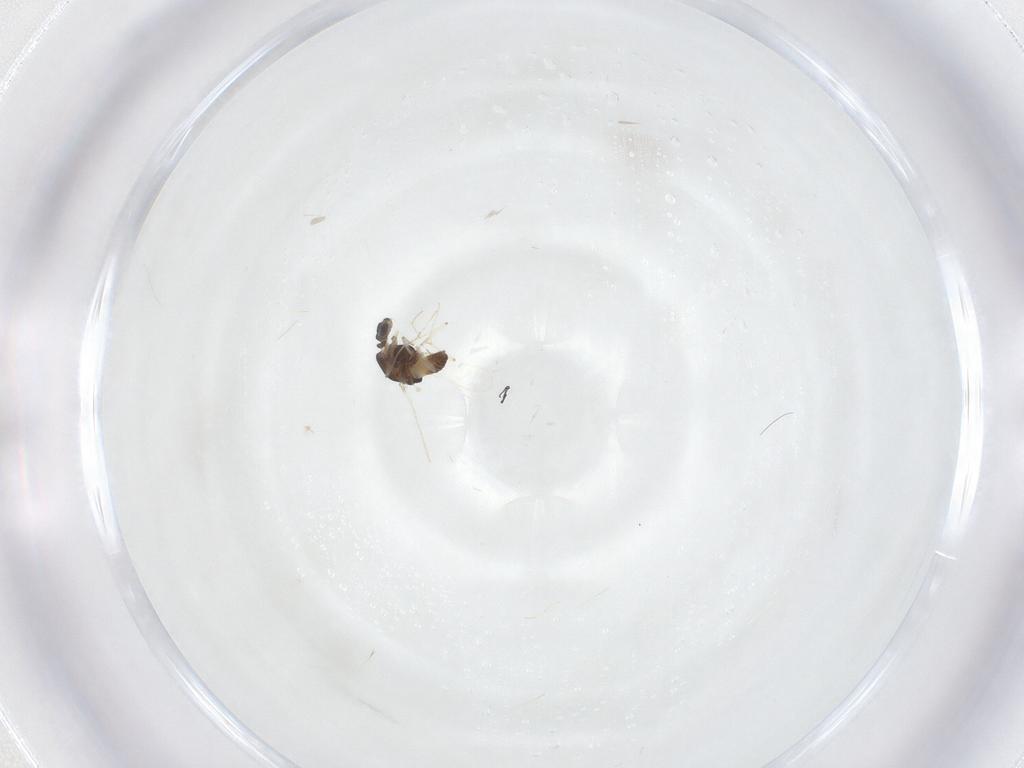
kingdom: Animalia
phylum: Arthropoda
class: Insecta
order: Diptera
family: Chironomidae
